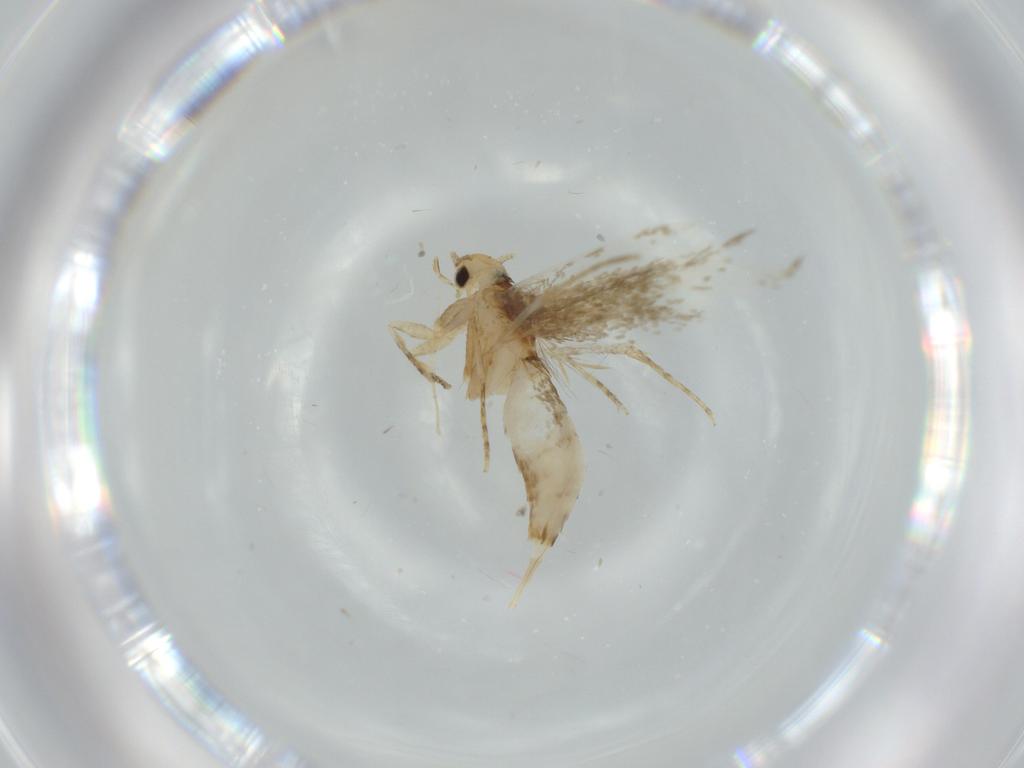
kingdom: Animalia
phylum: Arthropoda
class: Insecta
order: Lepidoptera
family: Tineidae
